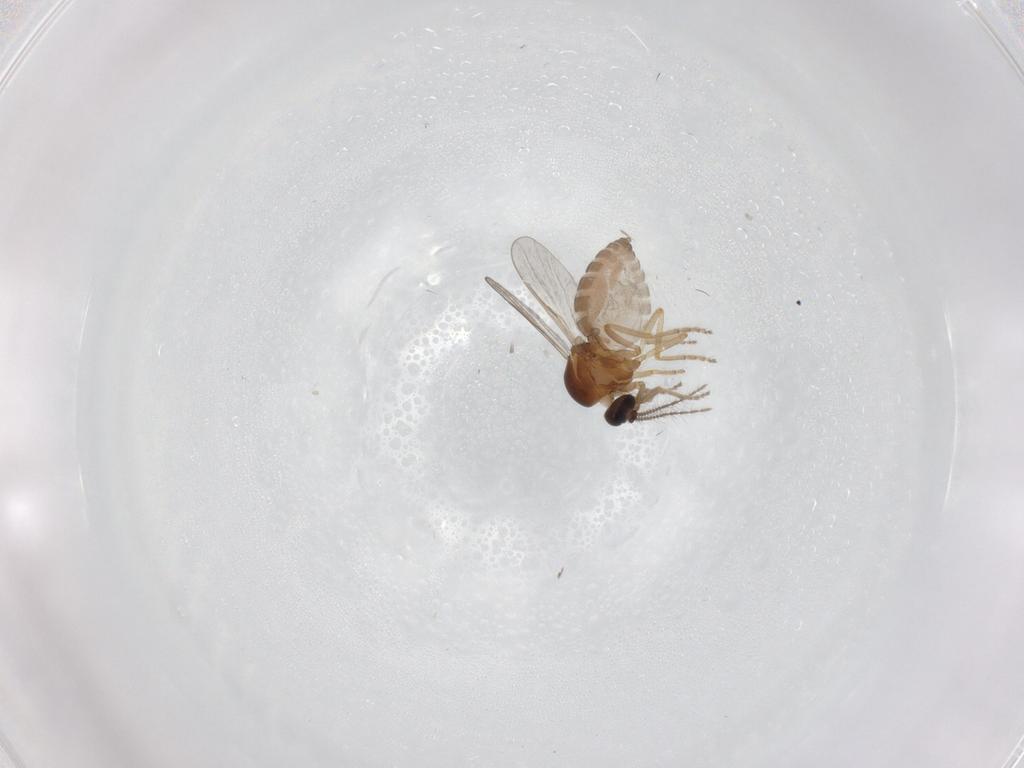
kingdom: Animalia
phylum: Arthropoda
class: Insecta
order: Diptera
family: Ceratopogonidae
